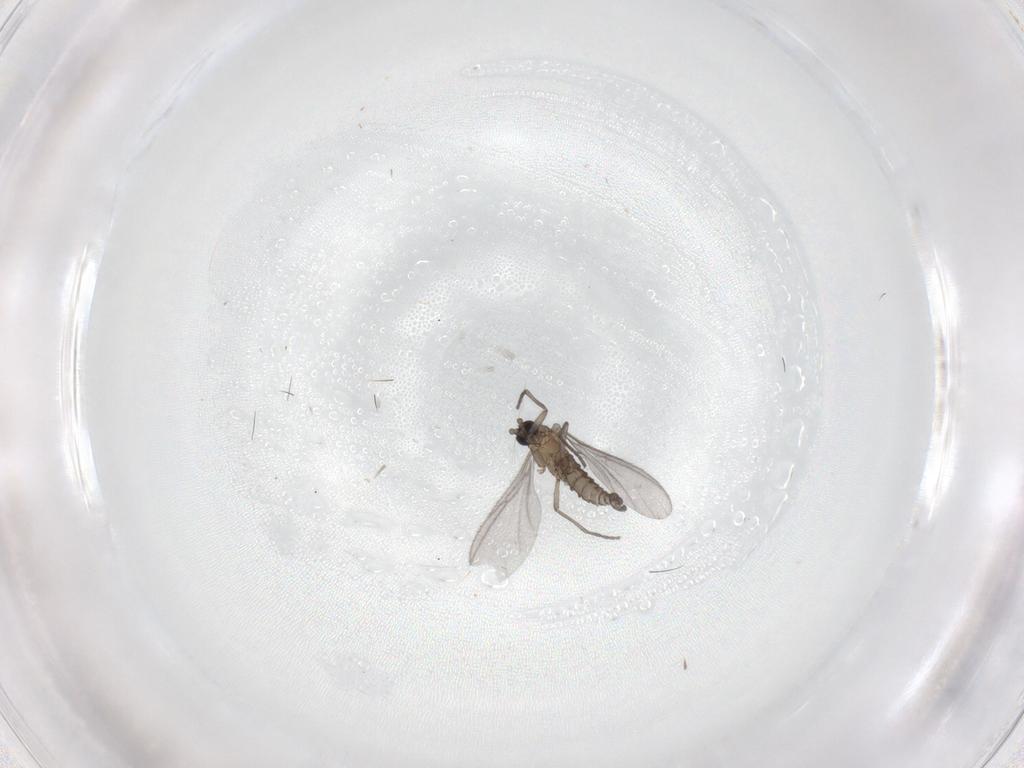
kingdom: Animalia
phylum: Arthropoda
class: Insecta
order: Diptera
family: Sciaridae
